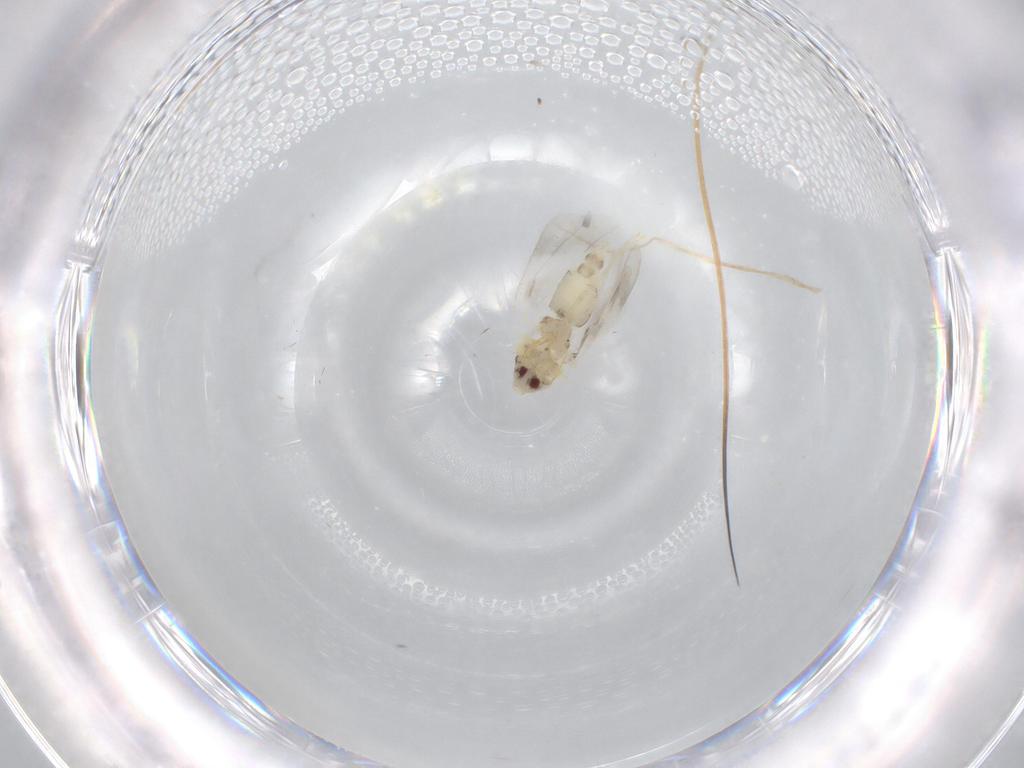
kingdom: Animalia
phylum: Arthropoda
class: Insecta
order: Hemiptera
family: Aleyrodidae
